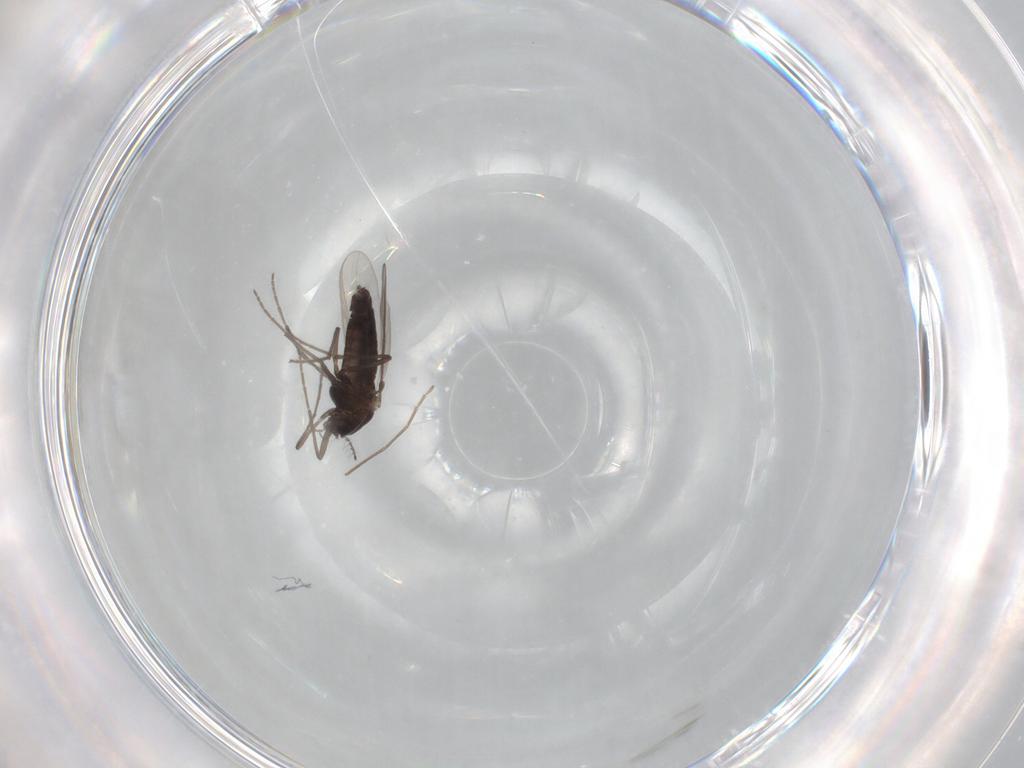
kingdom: Animalia
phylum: Arthropoda
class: Insecta
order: Diptera
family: Chironomidae
